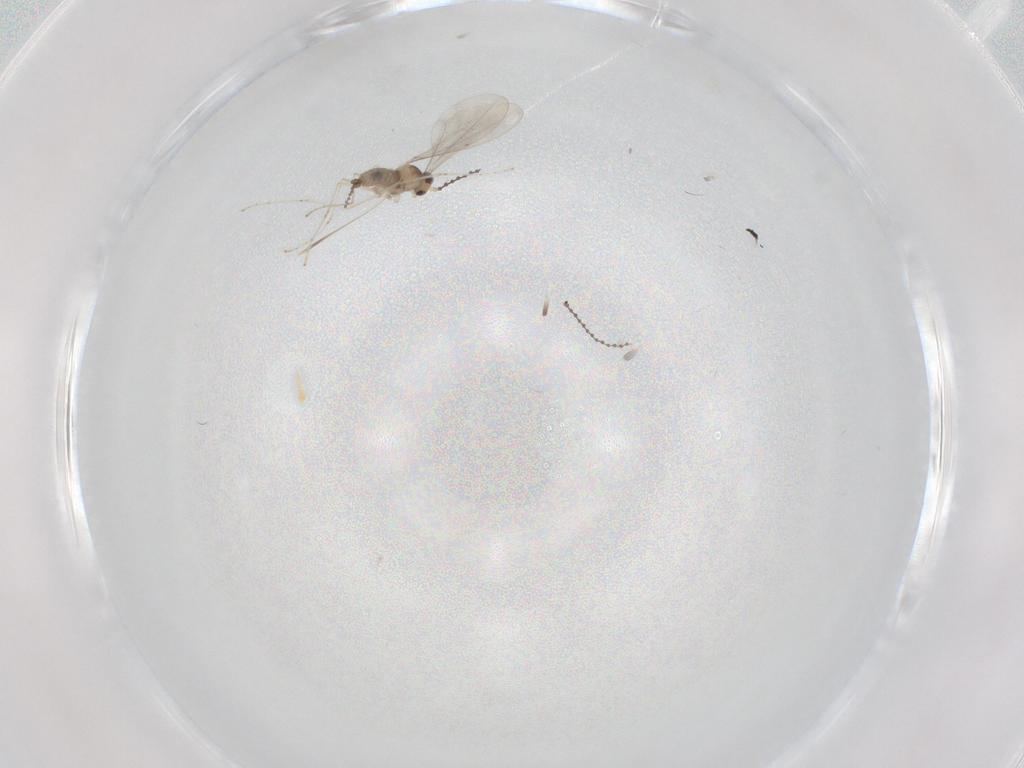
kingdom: Animalia
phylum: Arthropoda
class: Insecta
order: Diptera
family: Cecidomyiidae
